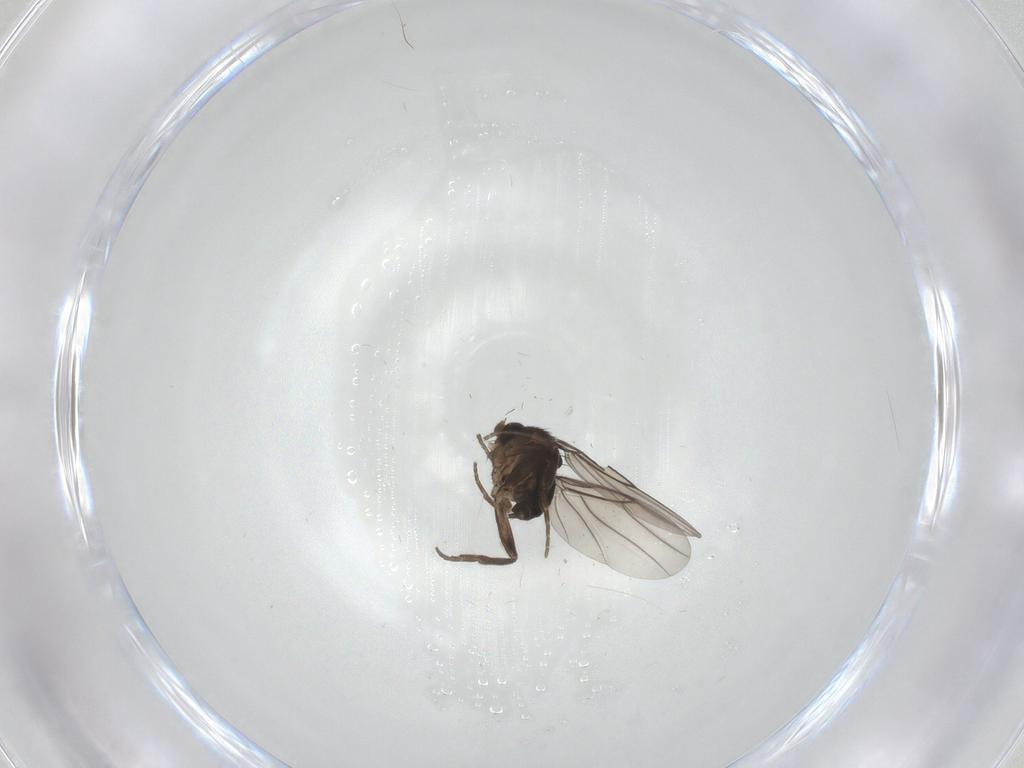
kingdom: Animalia
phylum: Arthropoda
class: Insecta
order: Diptera
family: Phoridae
